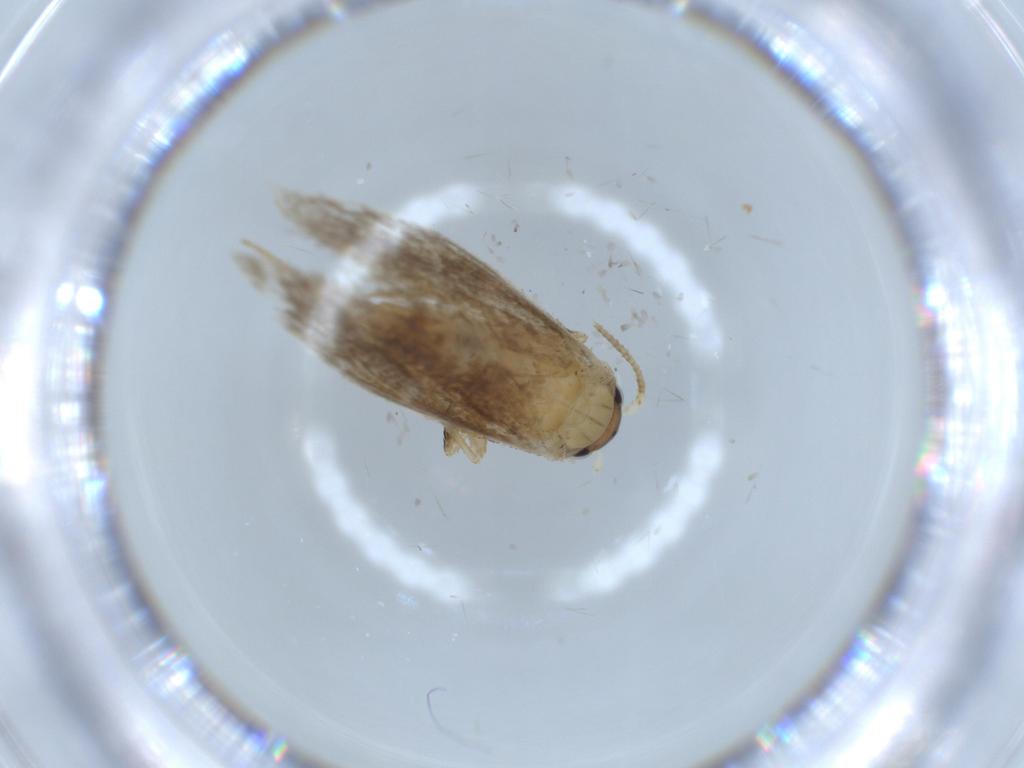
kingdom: Animalia
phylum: Arthropoda
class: Insecta
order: Lepidoptera
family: Tineidae
